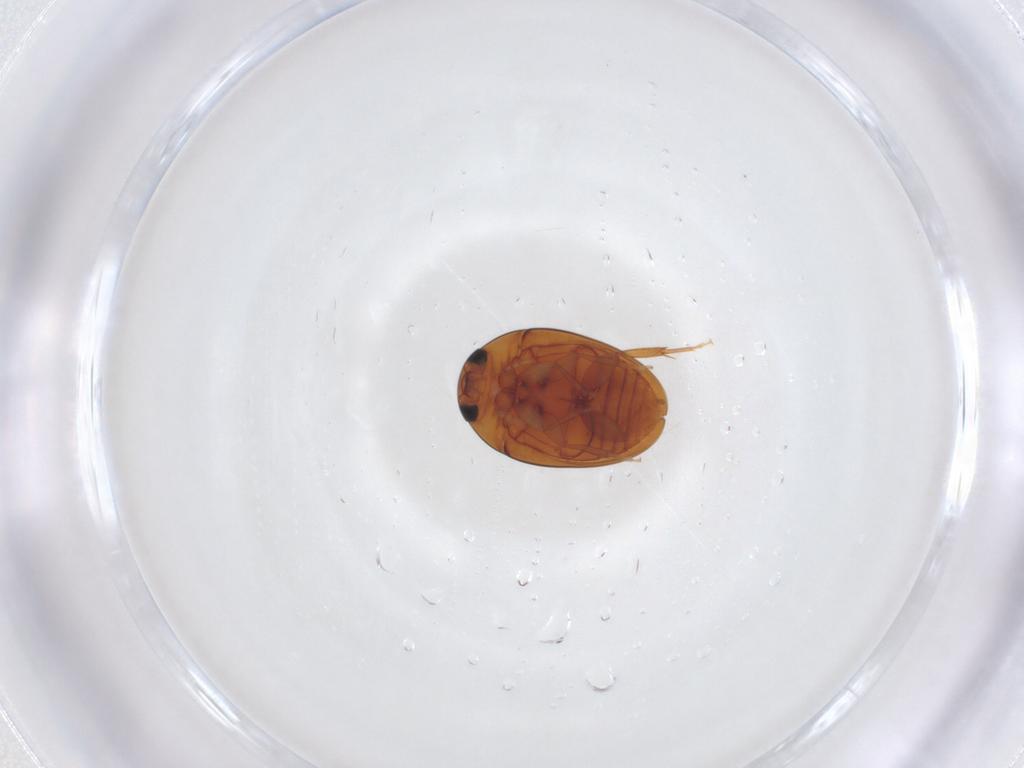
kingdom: Animalia
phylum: Arthropoda
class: Insecta
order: Coleoptera
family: Phalacridae
